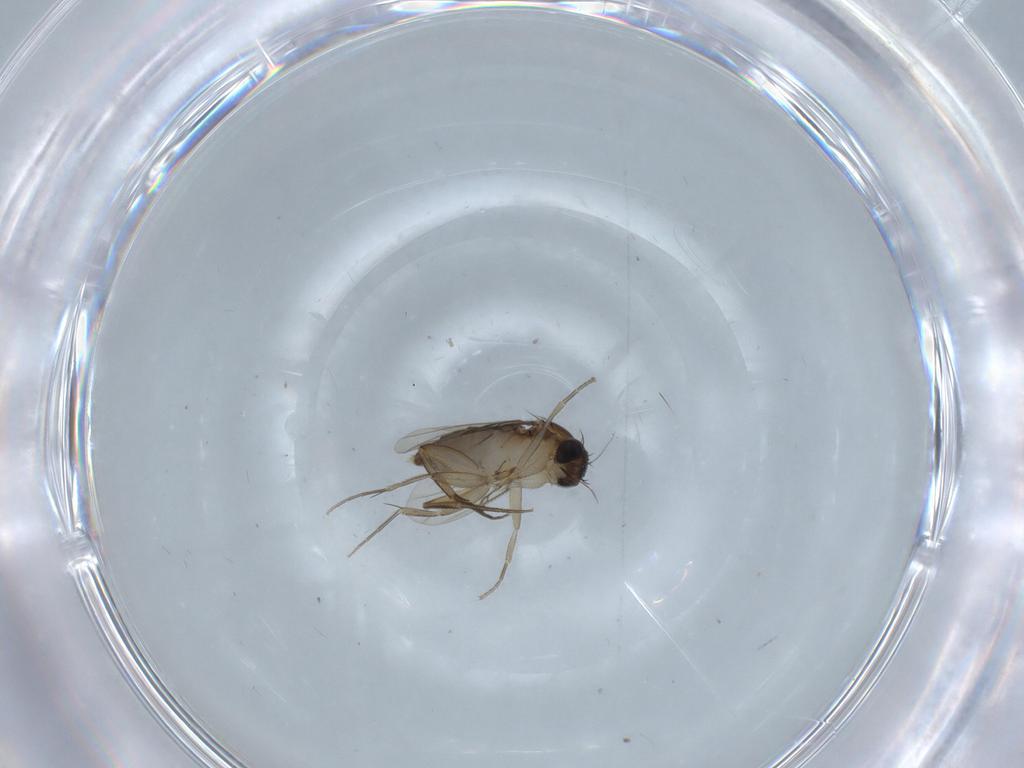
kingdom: Animalia
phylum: Arthropoda
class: Insecta
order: Diptera
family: Phoridae
